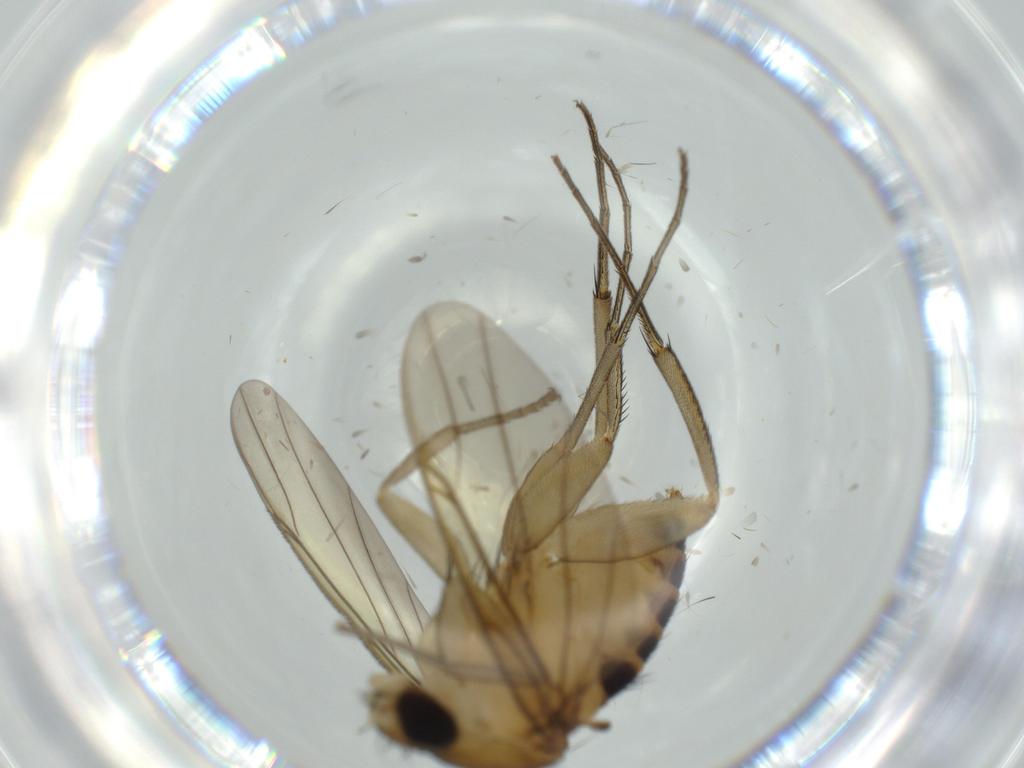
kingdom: Animalia
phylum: Arthropoda
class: Insecta
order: Diptera
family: Phoridae
